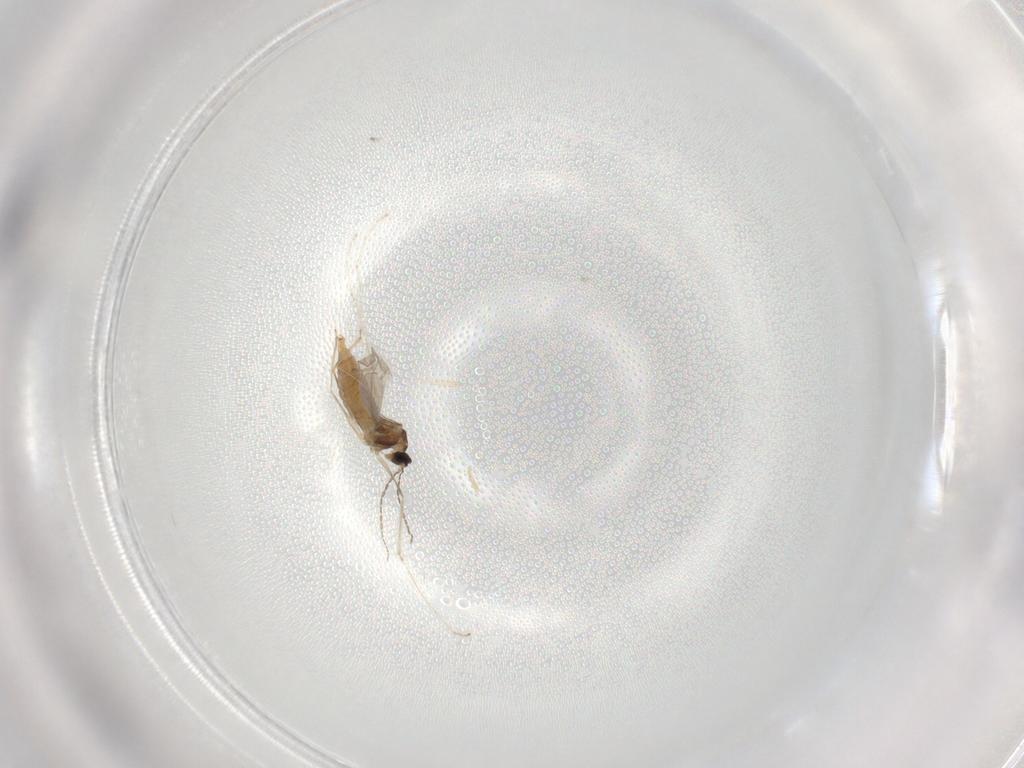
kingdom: Animalia
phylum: Arthropoda
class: Insecta
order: Diptera
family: Cecidomyiidae
